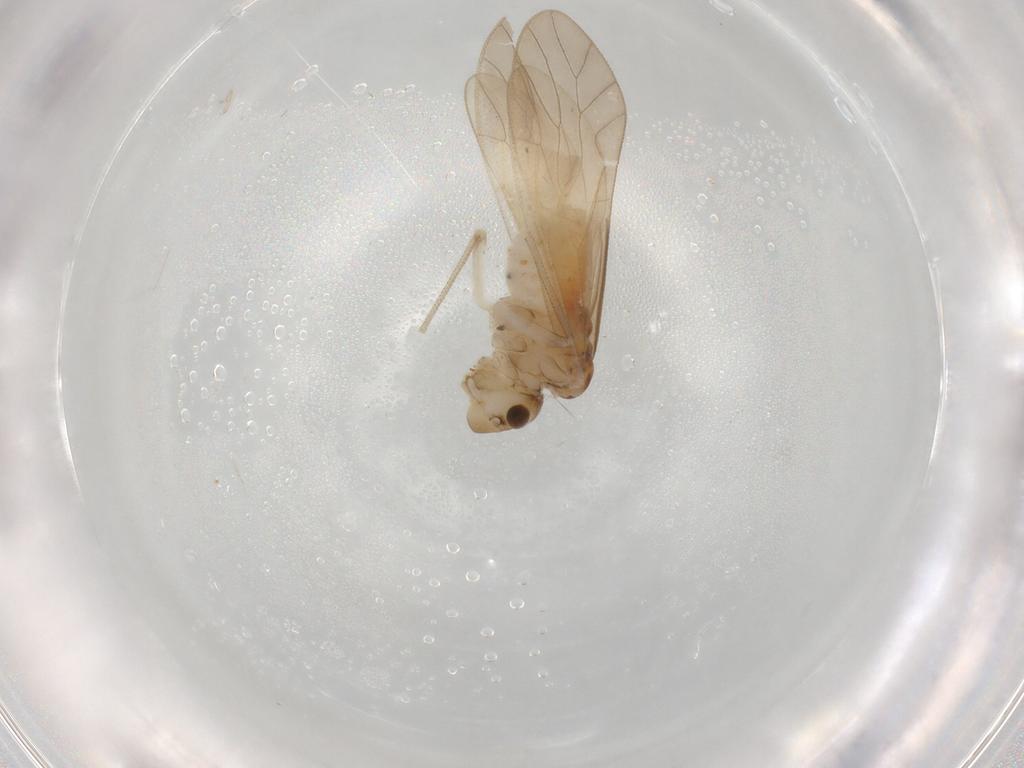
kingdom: Animalia
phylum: Arthropoda
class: Insecta
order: Psocodea
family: Caeciliusidae
